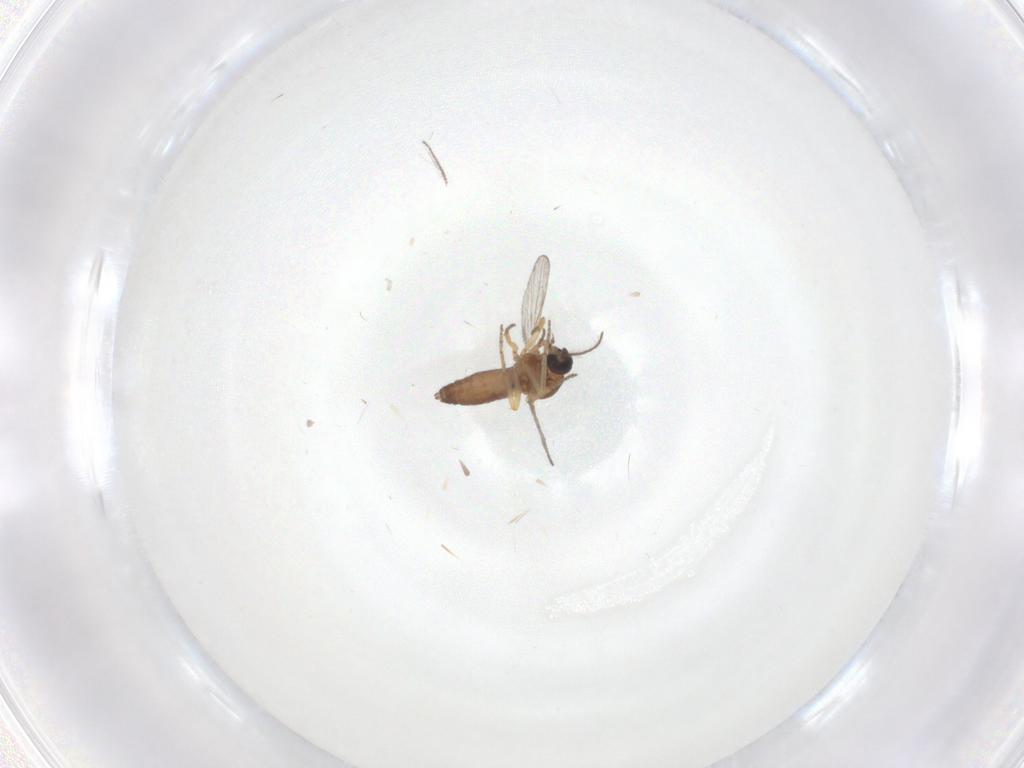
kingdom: Animalia
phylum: Arthropoda
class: Insecta
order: Diptera
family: Ceratopogonidae
